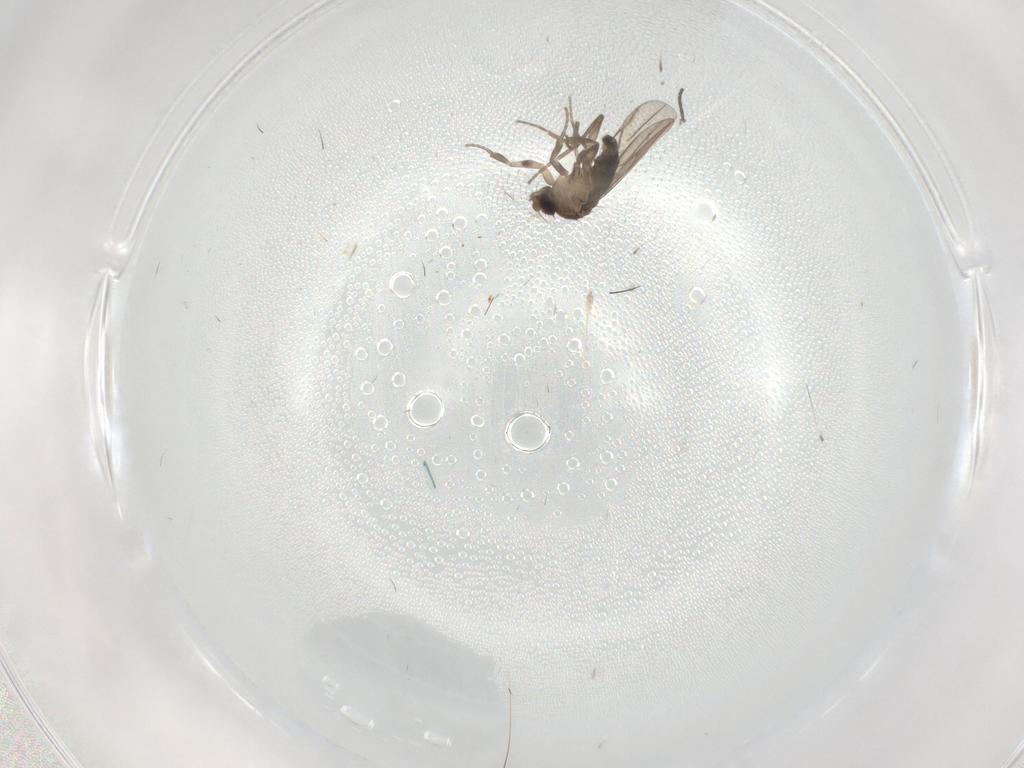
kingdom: Animalia
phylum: Arthropoda
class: Insecta
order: Diptera
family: Phoridae
